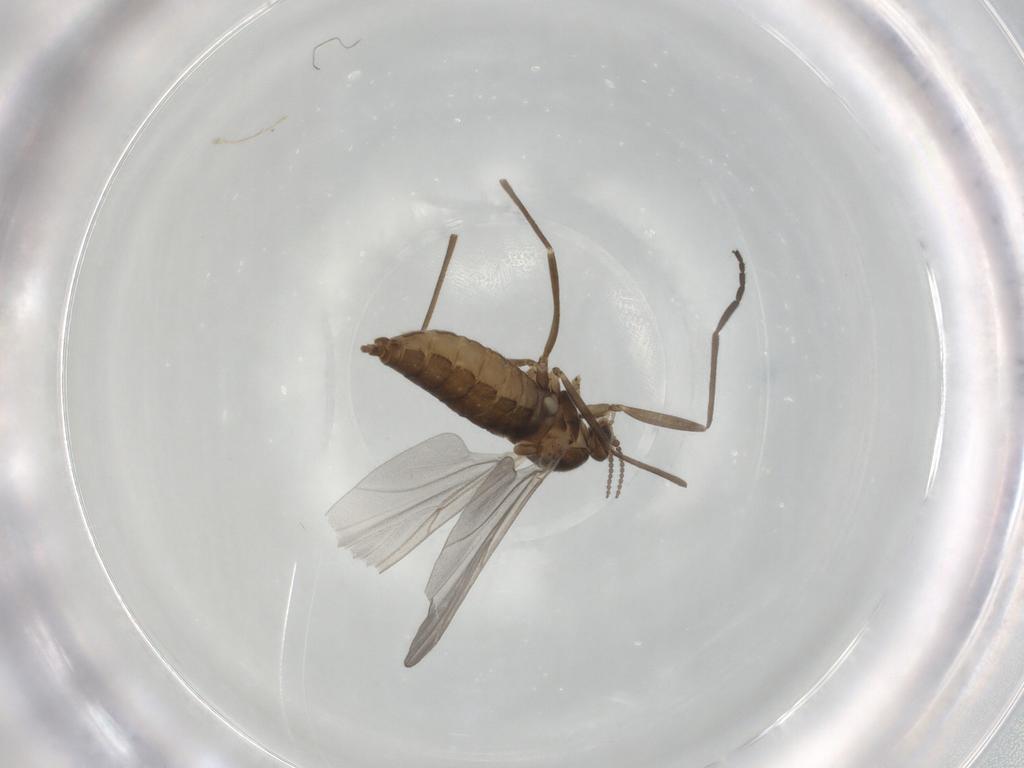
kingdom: Animalia
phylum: Arthropoda
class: Insecta
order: Diptera
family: Cecidomyiidae
